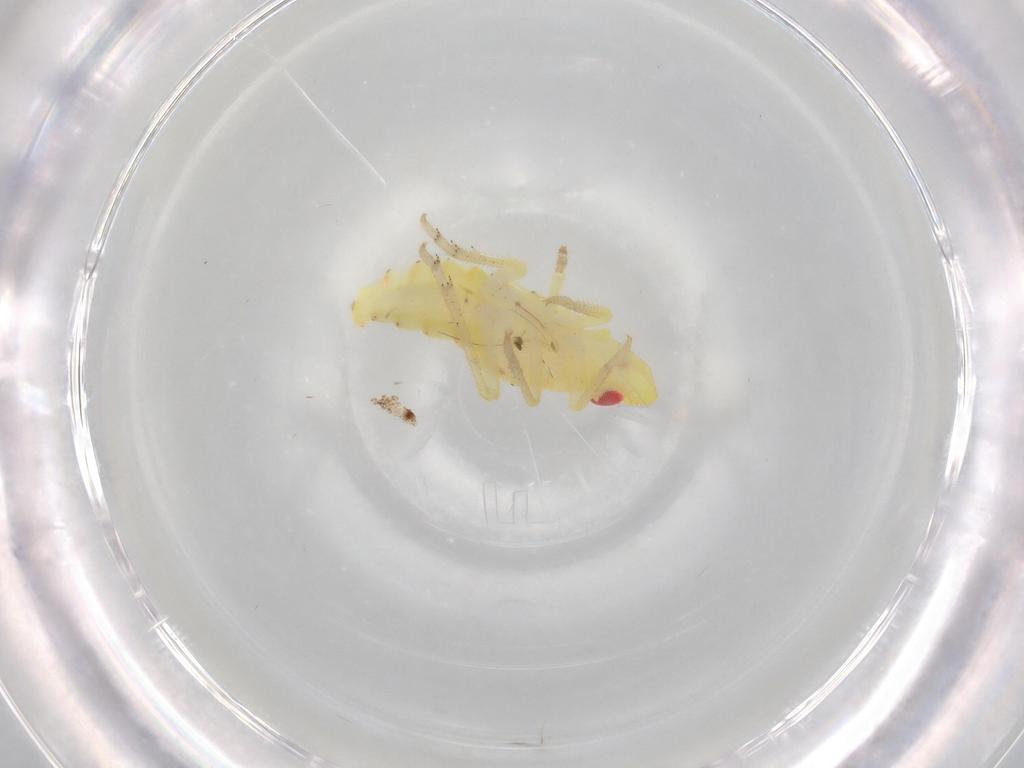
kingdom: Animalia
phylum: Arthropoda
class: Insecta
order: Hemiptera
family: Tropiduchidae
